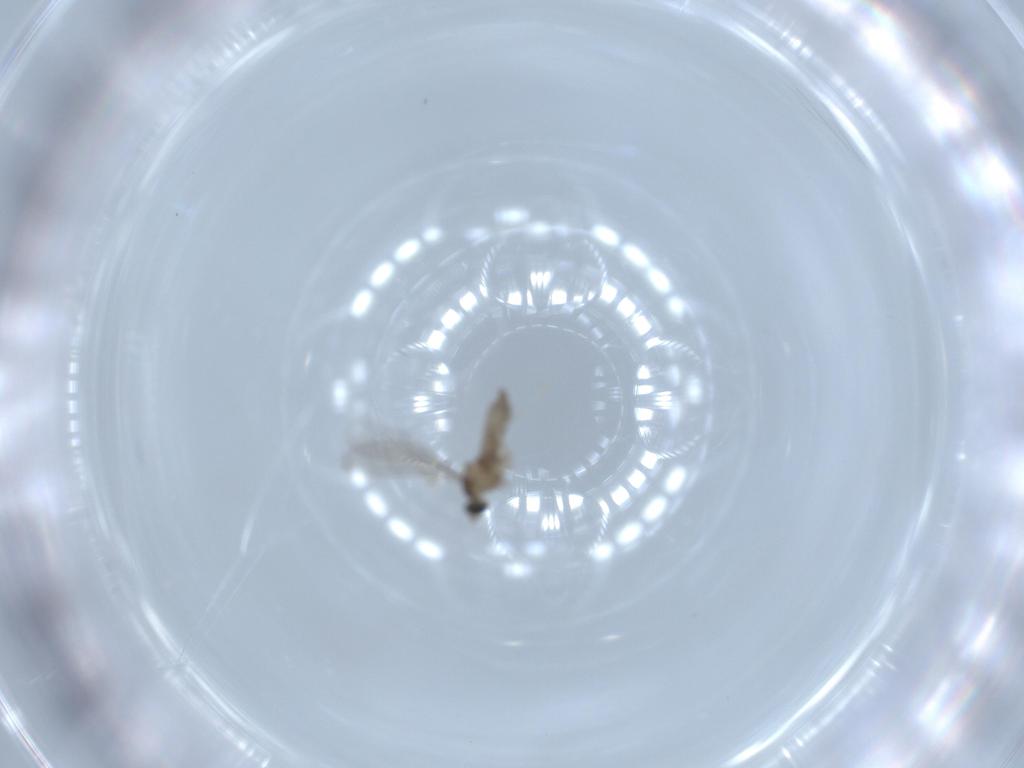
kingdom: Animalia
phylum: Arthropoda
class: Insecta
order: Diptera
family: Cecidomyiidae
